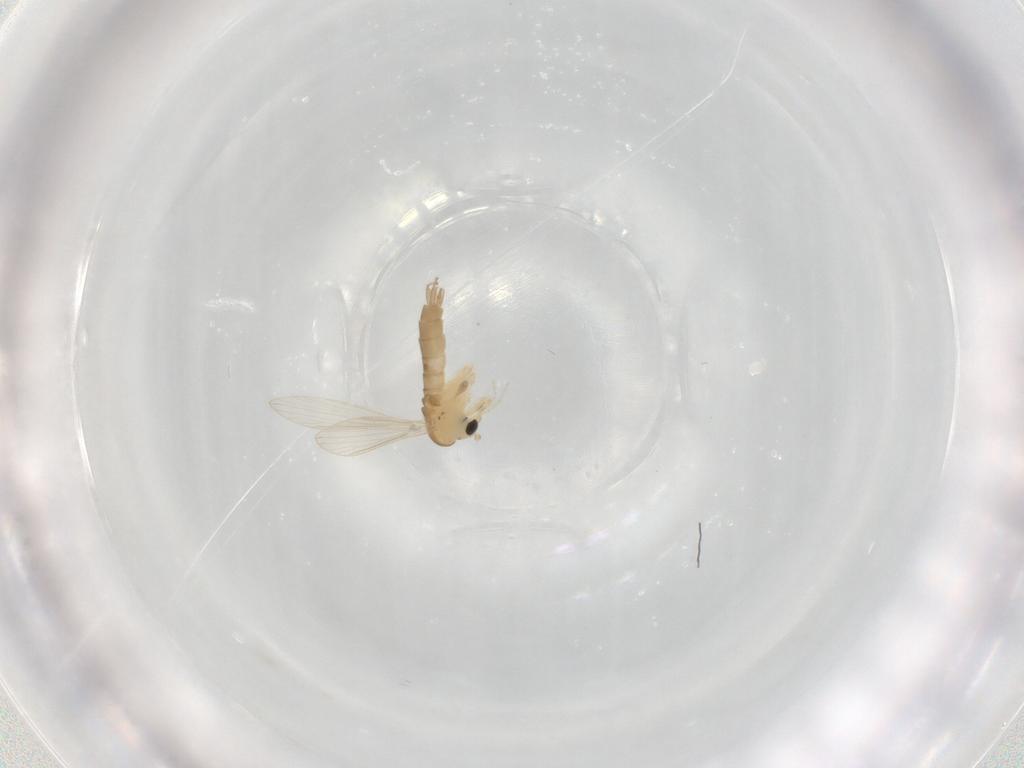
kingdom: Animalia
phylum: Arthropoda
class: Insecta
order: Diptera
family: Psychodidae
